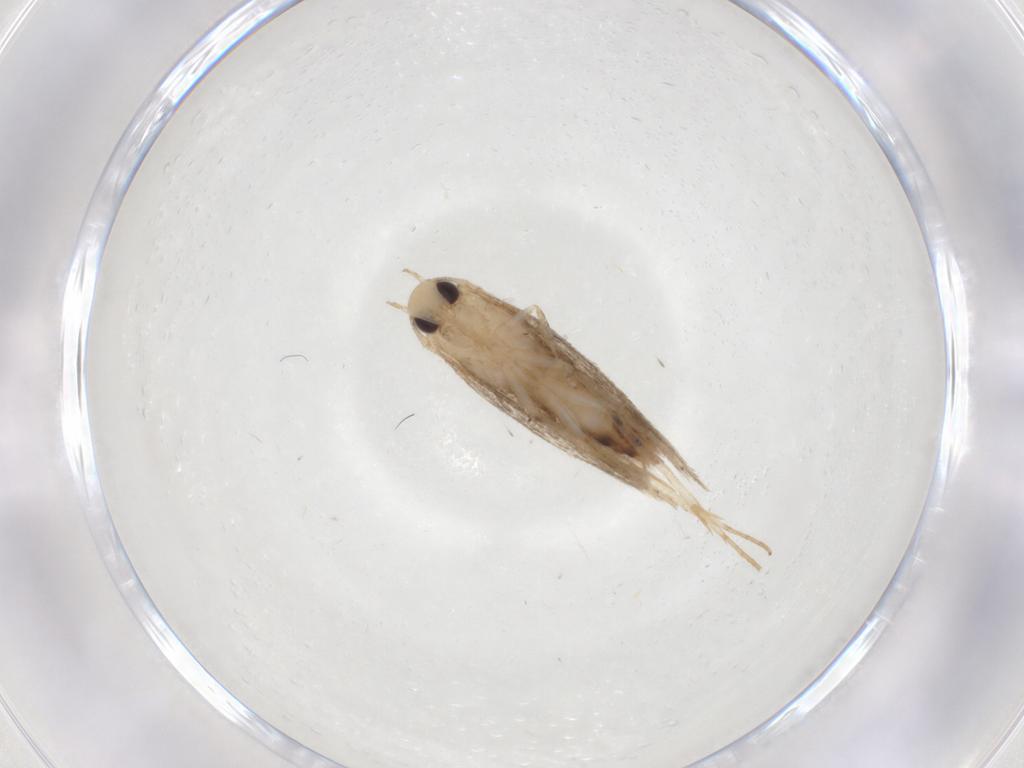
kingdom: Animalia
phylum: Arthropoda
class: Insecta
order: Lepidoptera
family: Cosmopterigidae
